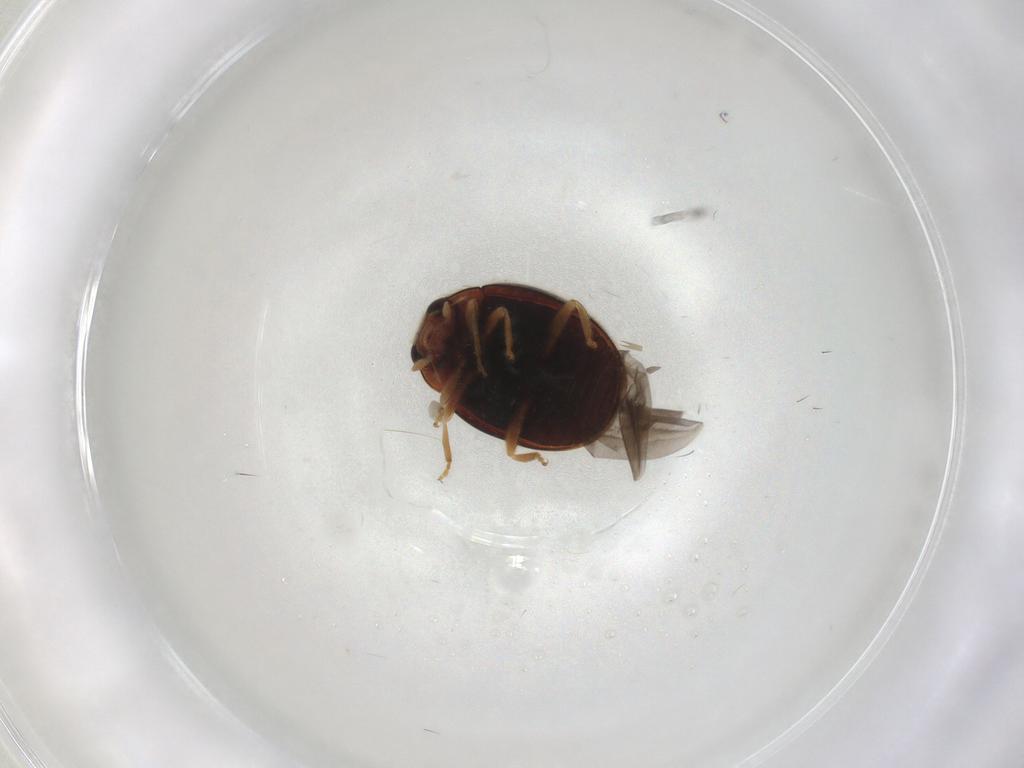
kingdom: Animalia
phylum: Arthropoda
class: Insecta
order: Coleoptera
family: Coccinellidae
